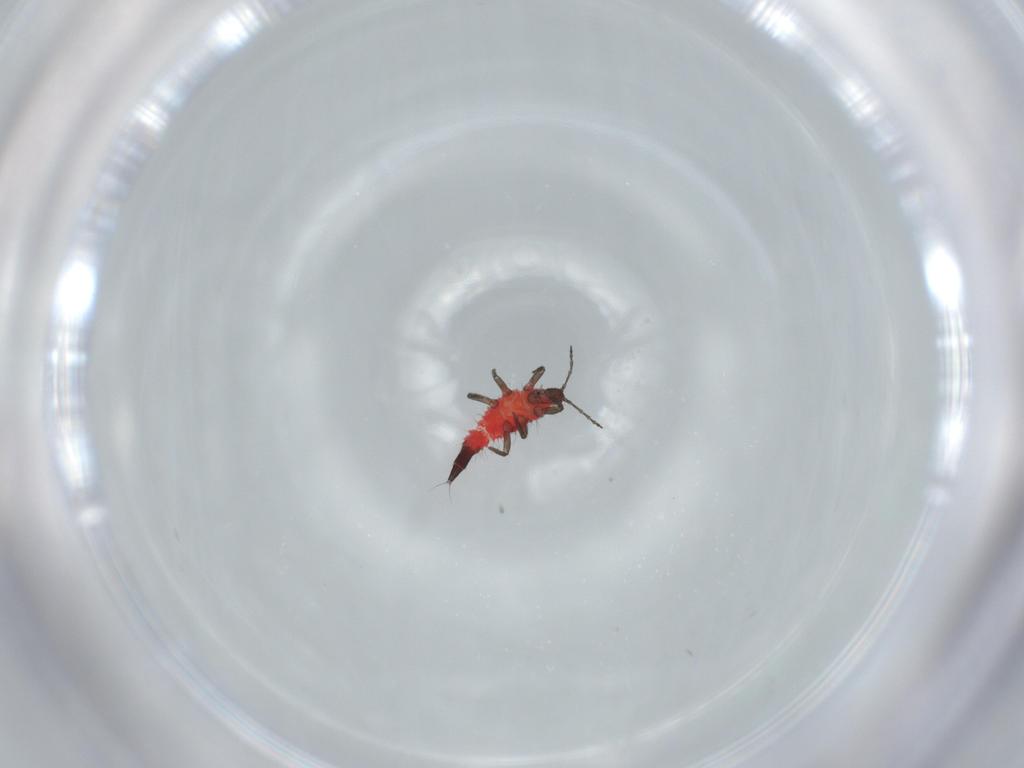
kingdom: Animalia
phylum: Arthropoda
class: Insecta
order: Thysanoptera
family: Phlaeothripidae
